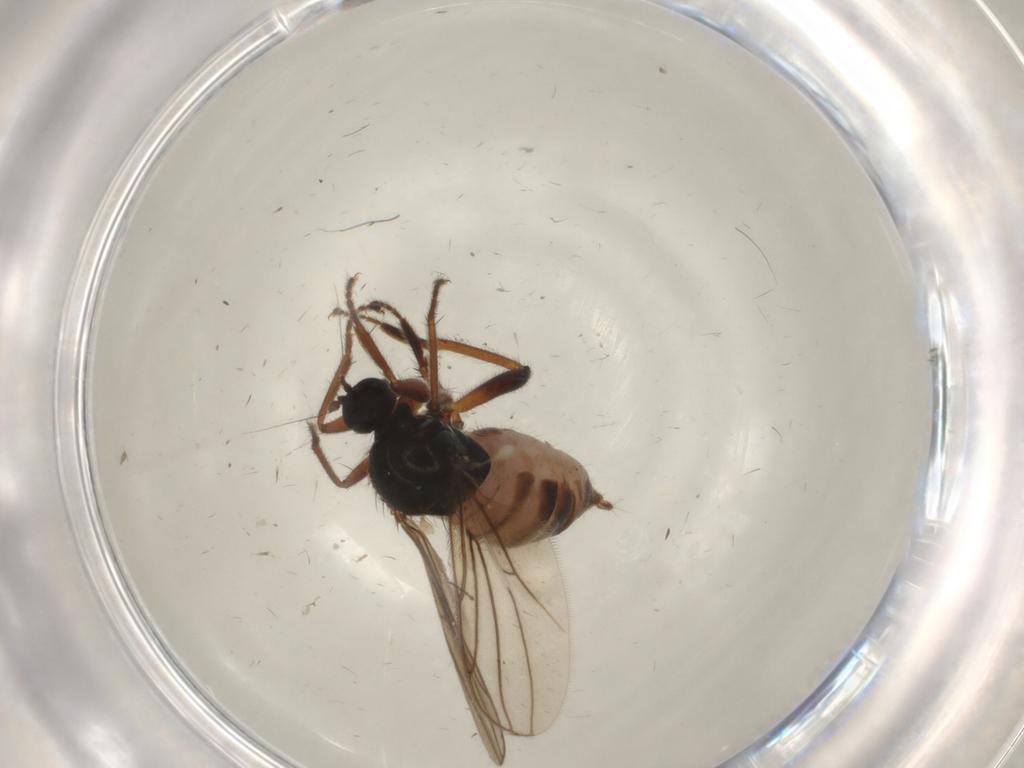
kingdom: Animalia
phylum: Arthropoda
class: Insecta
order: Diptera
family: Hybotidae
